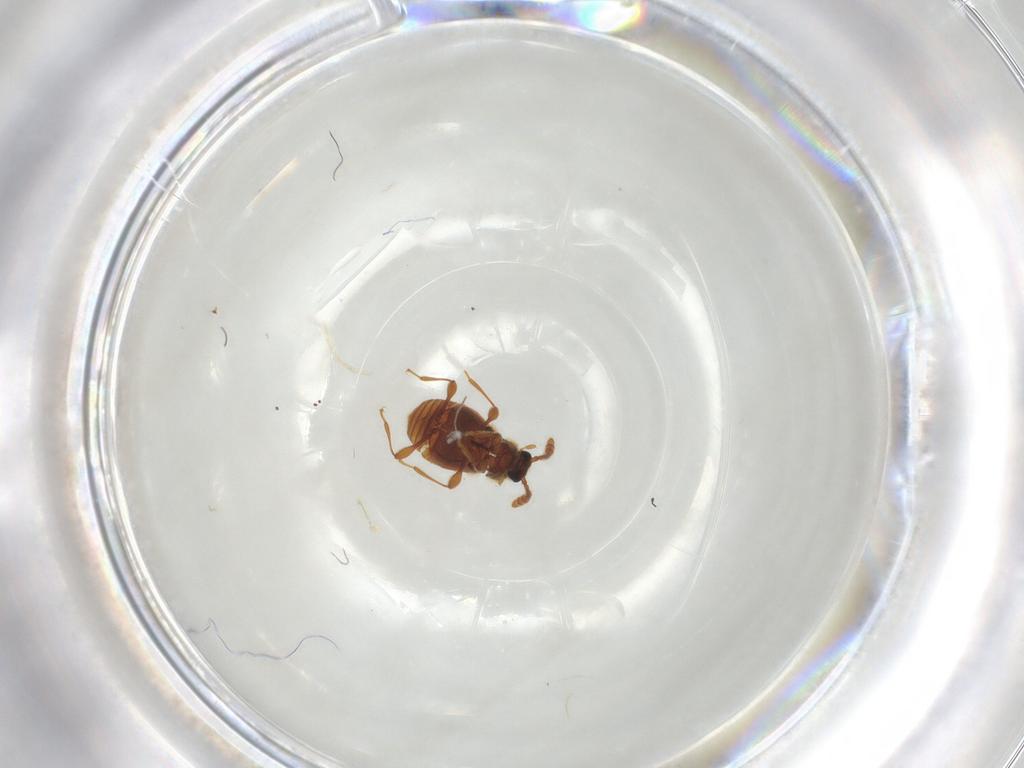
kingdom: Animalia
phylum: Arthropoda
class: Insecta
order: Coleoptera
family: Staphylinidae
